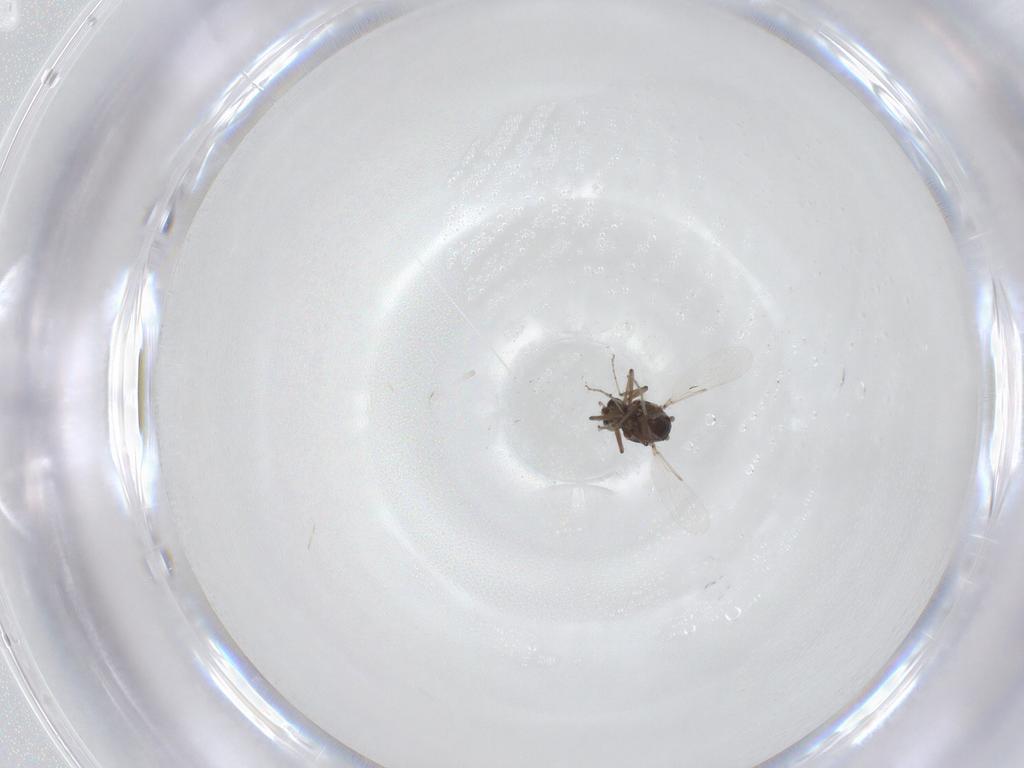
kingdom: Animalia
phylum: Arthropoda
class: Insecta
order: Diptera
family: Ceratopogonidae
